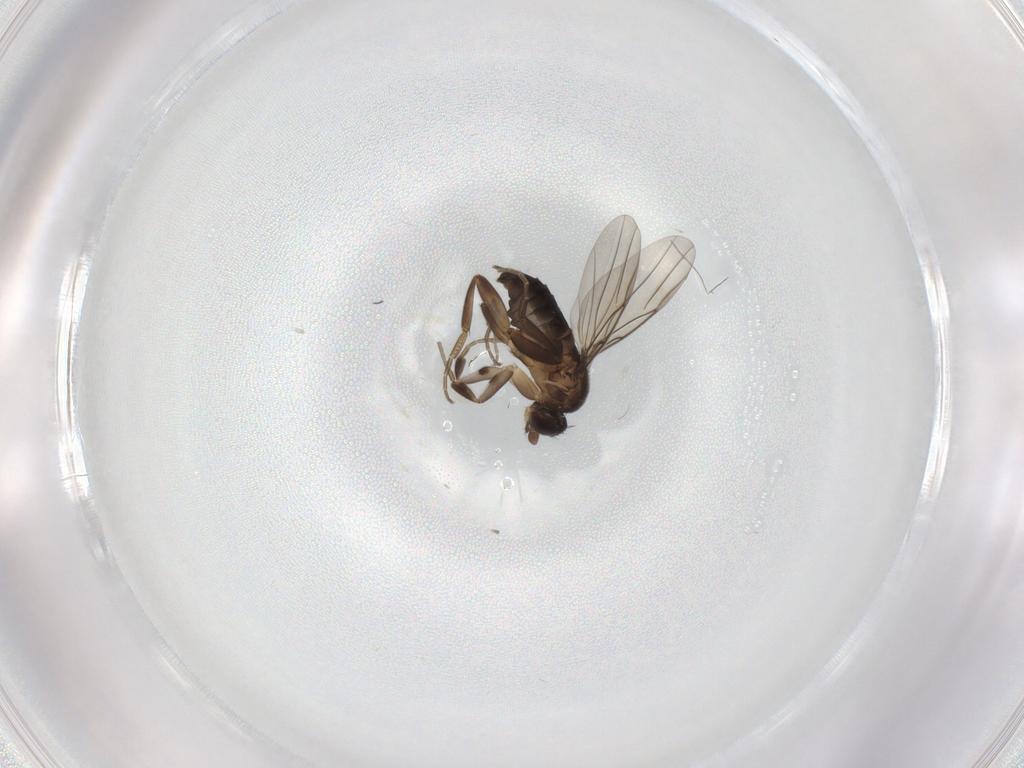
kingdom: Animalia
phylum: Arthropoda
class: Insecta
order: Diptera
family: Phoridae
